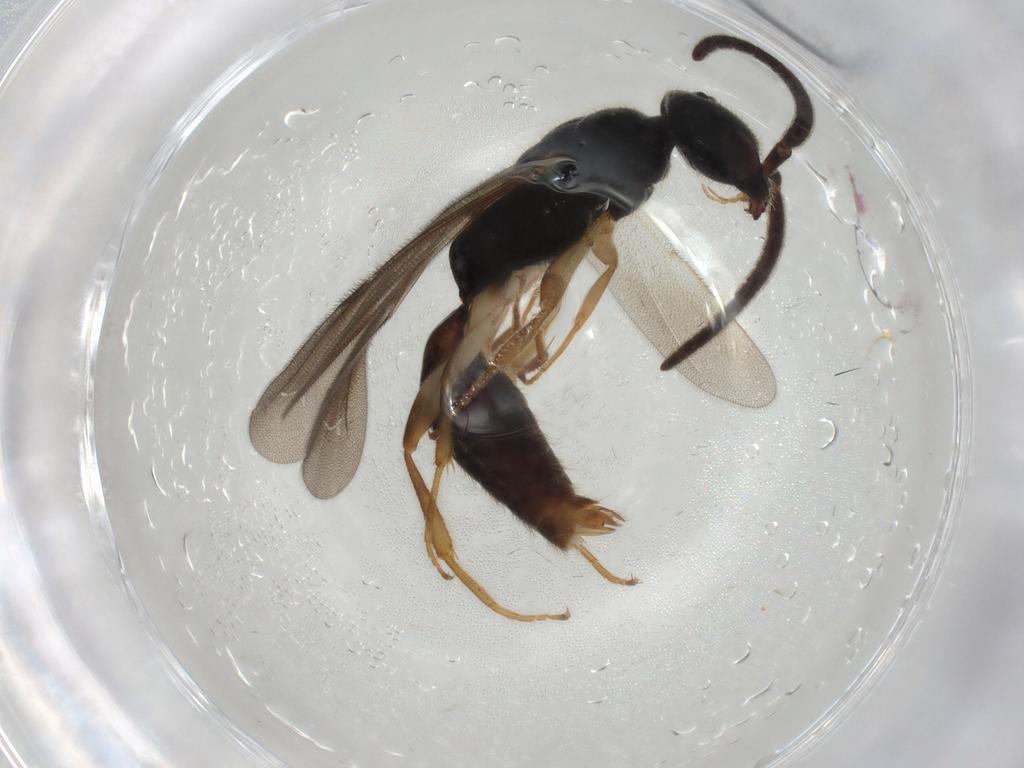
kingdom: Animalia
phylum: Arthropoda
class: Insecta
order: Hymenoptera
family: Bethylidae
